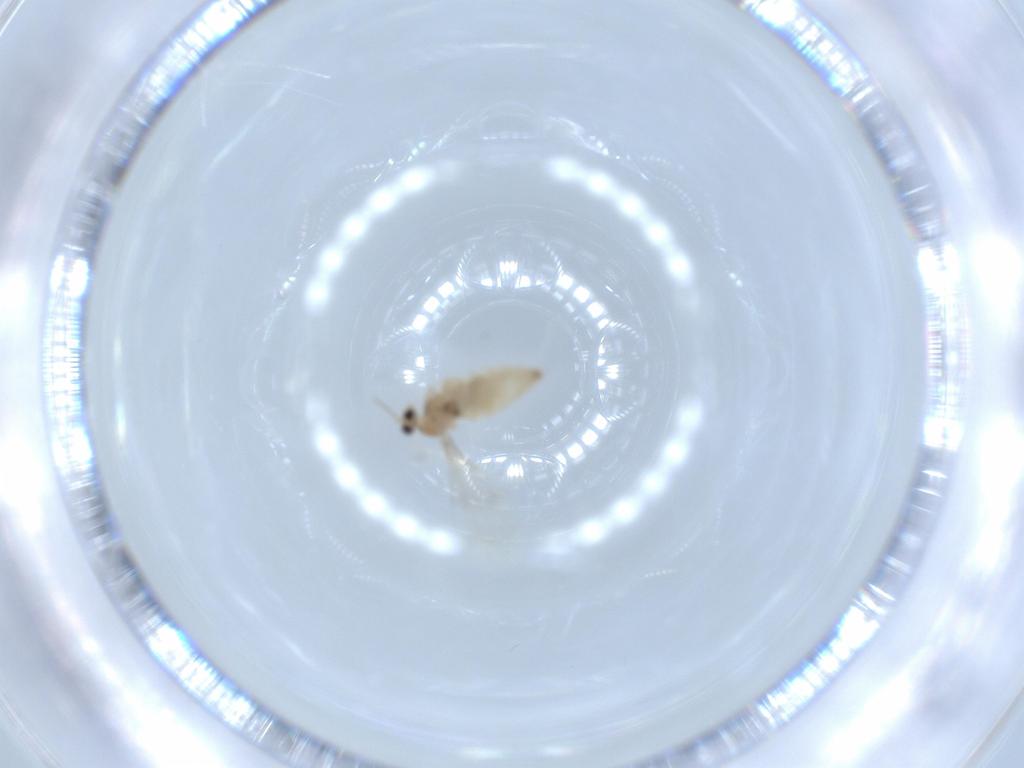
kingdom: Animalia
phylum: Arthropoda
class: Insecta
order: Diptera
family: Cecidomyiidae
